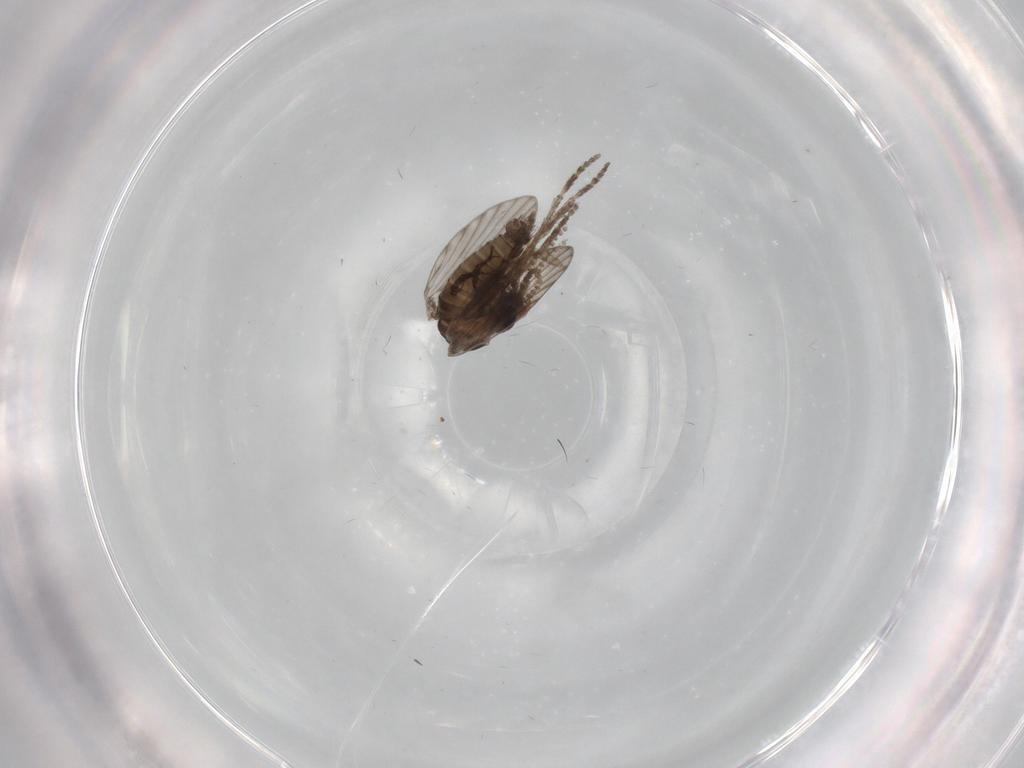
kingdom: Animalia
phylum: Arthropoda
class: Insecta
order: Diptera
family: Psychodidae
